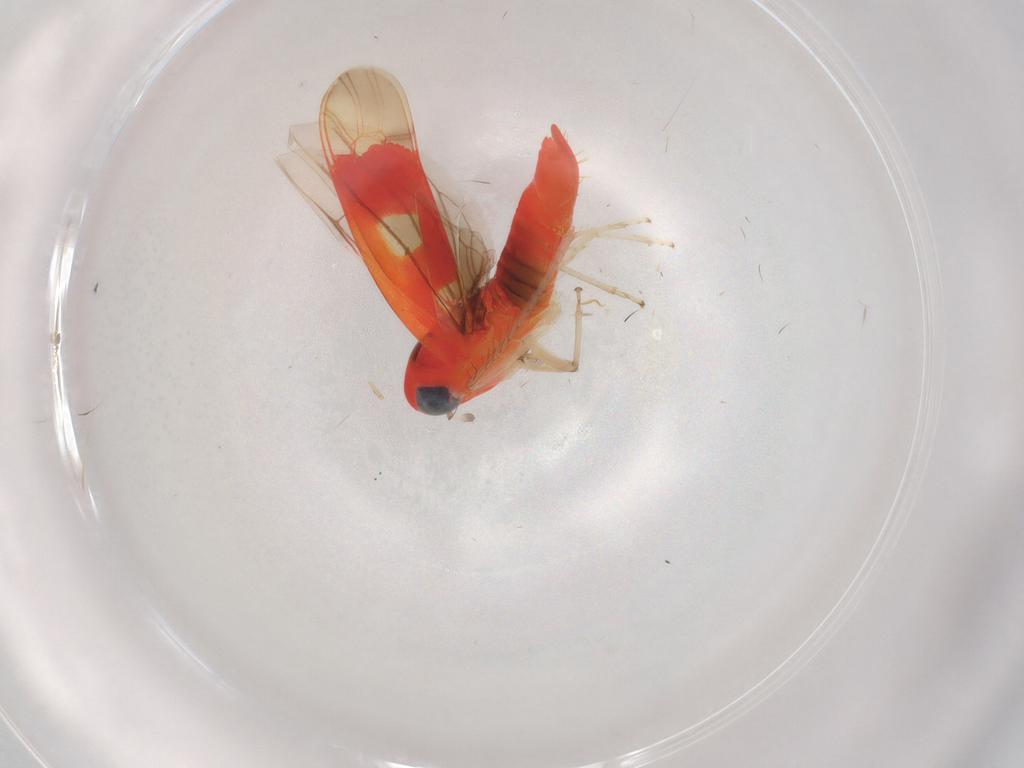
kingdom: Animalia
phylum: Arthropoda
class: Insecta
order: Hemiptera
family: Cicadellidae
